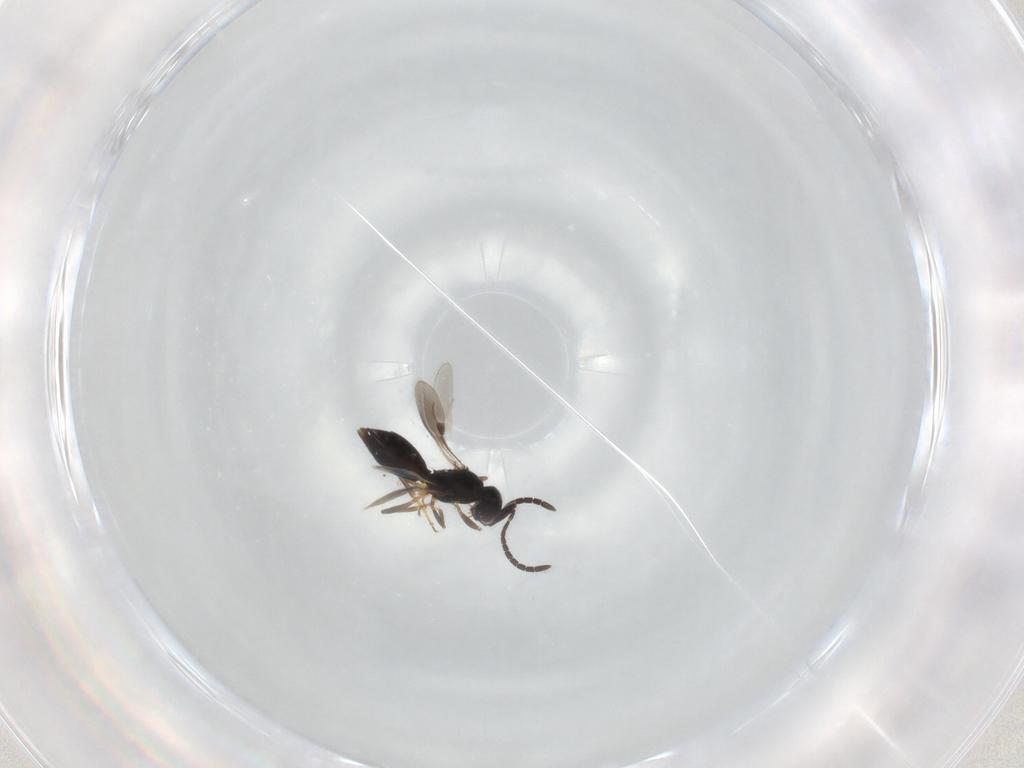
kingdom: Animalia
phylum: Arthropoda
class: Insecta
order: Hymenoptera
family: Megaspilidae
